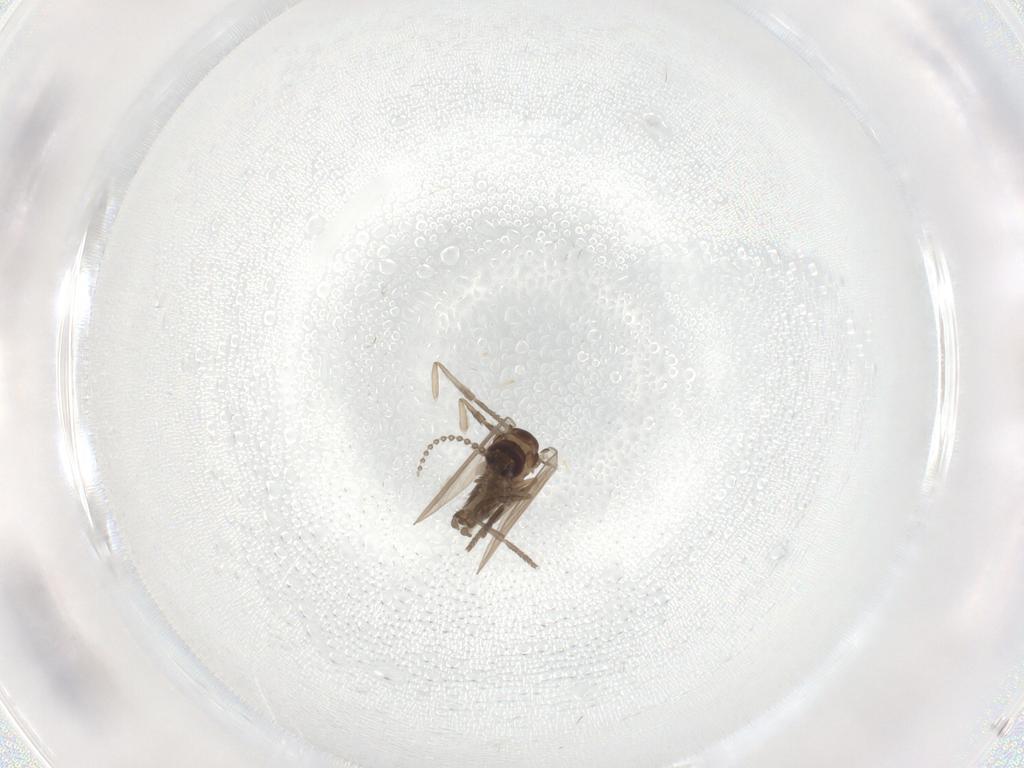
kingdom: Animalia
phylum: Arthropoda
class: Insecta
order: Diptera
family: Psychodidae
